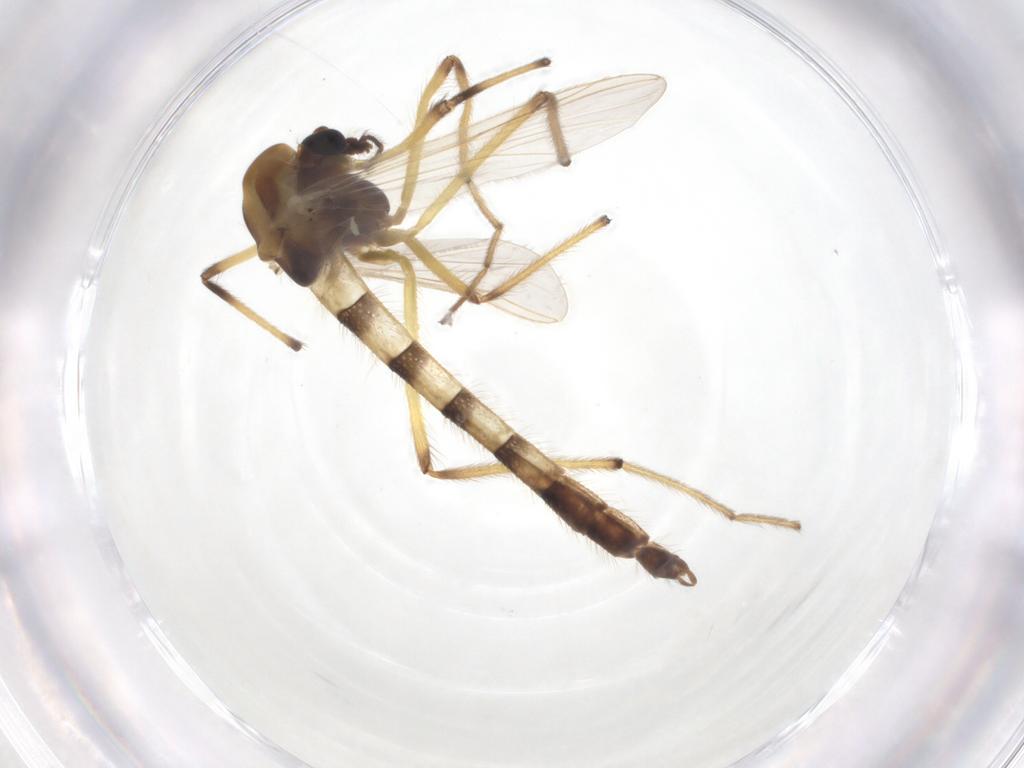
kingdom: Animalia
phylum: Arthropoda
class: Insecta
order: Diptera
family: Chironomidae
